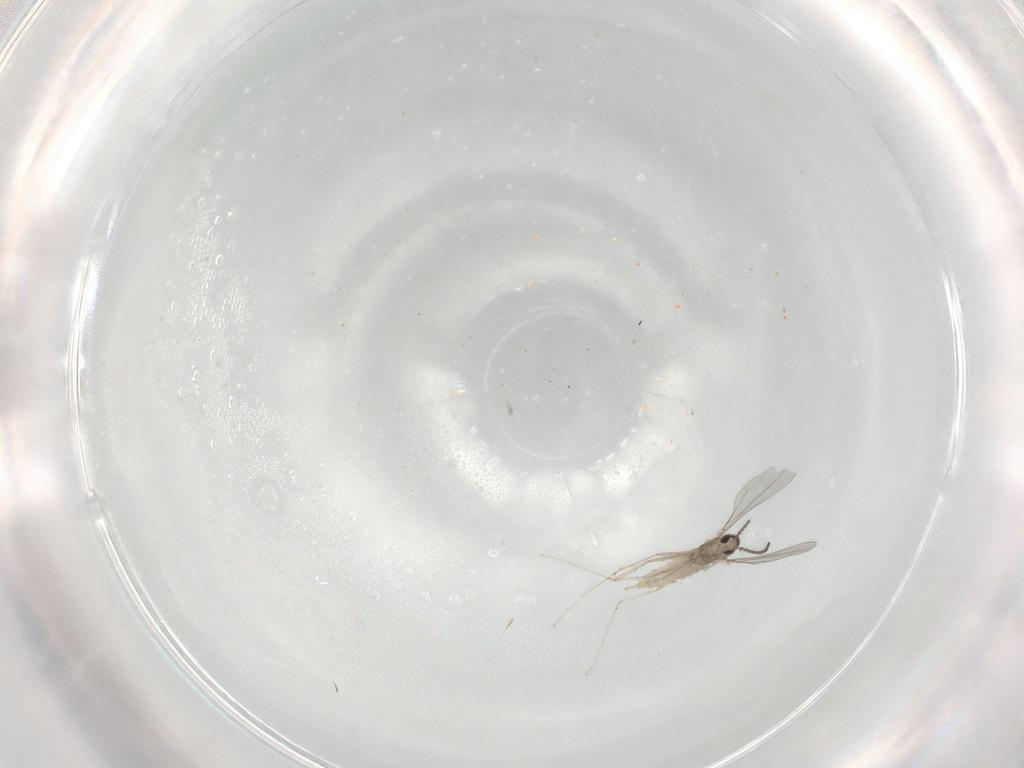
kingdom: Animalia
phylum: Arthropoda
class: Insecta
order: Diptera
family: Cecidomyiidae
